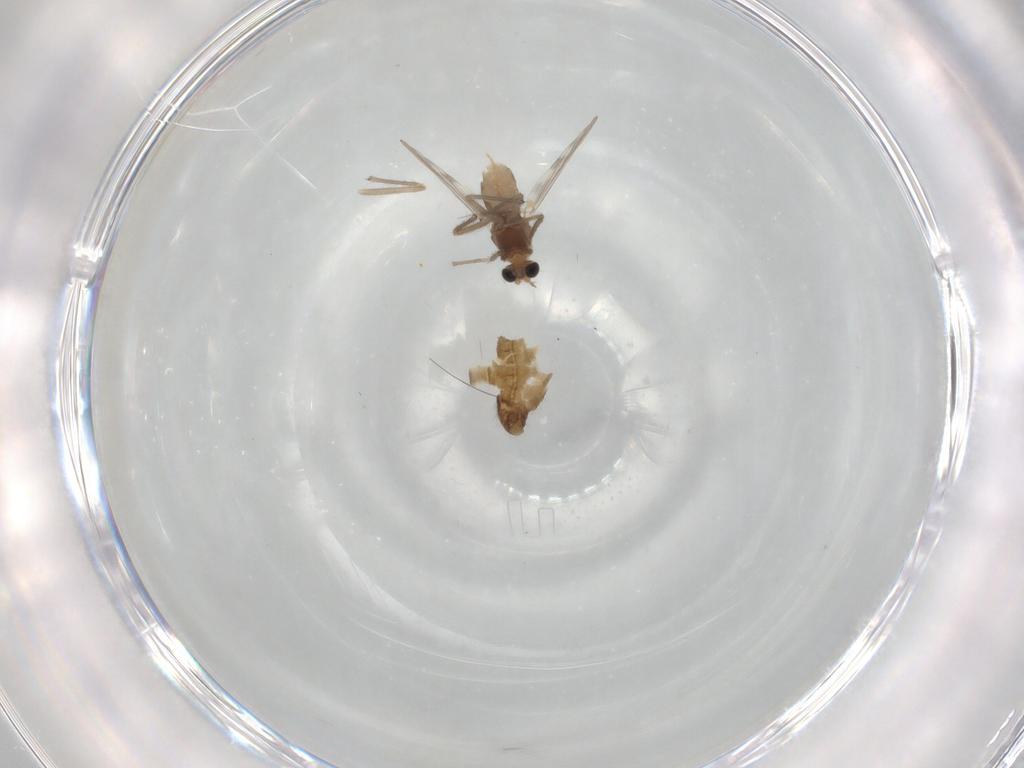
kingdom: Animalia
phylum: Arthropoda
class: Insecta
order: Diptera
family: Chironomidae
